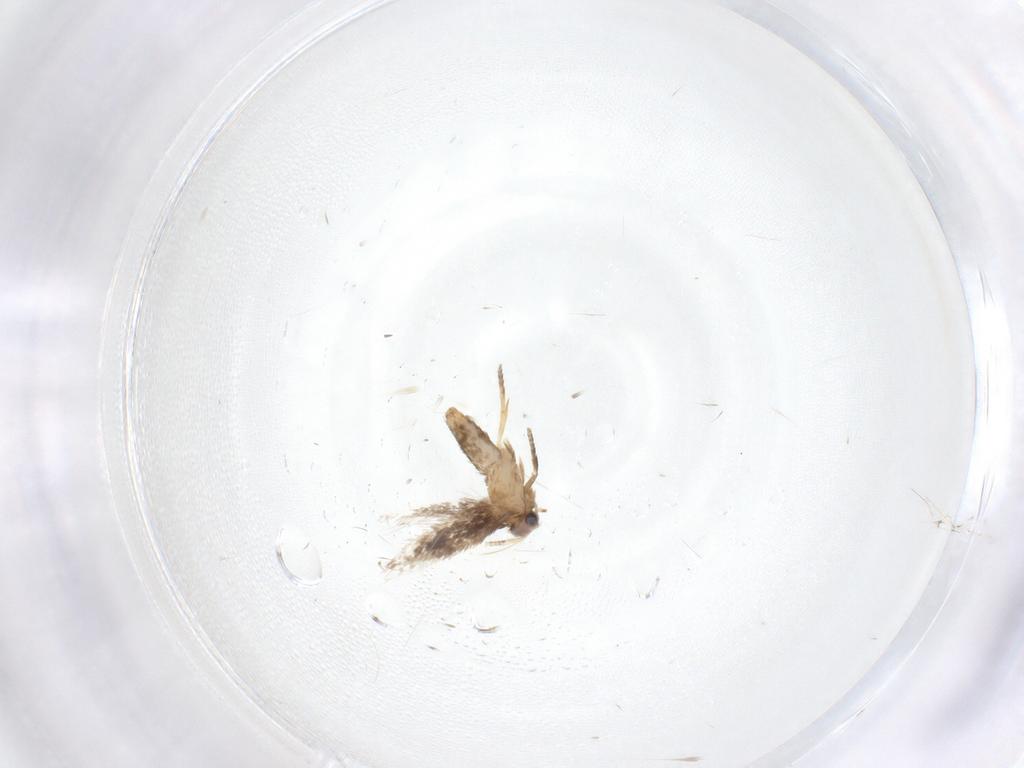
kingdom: Animalia
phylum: Arthropoda
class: Insecta
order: Lepidoptera
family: Nepticulidae
